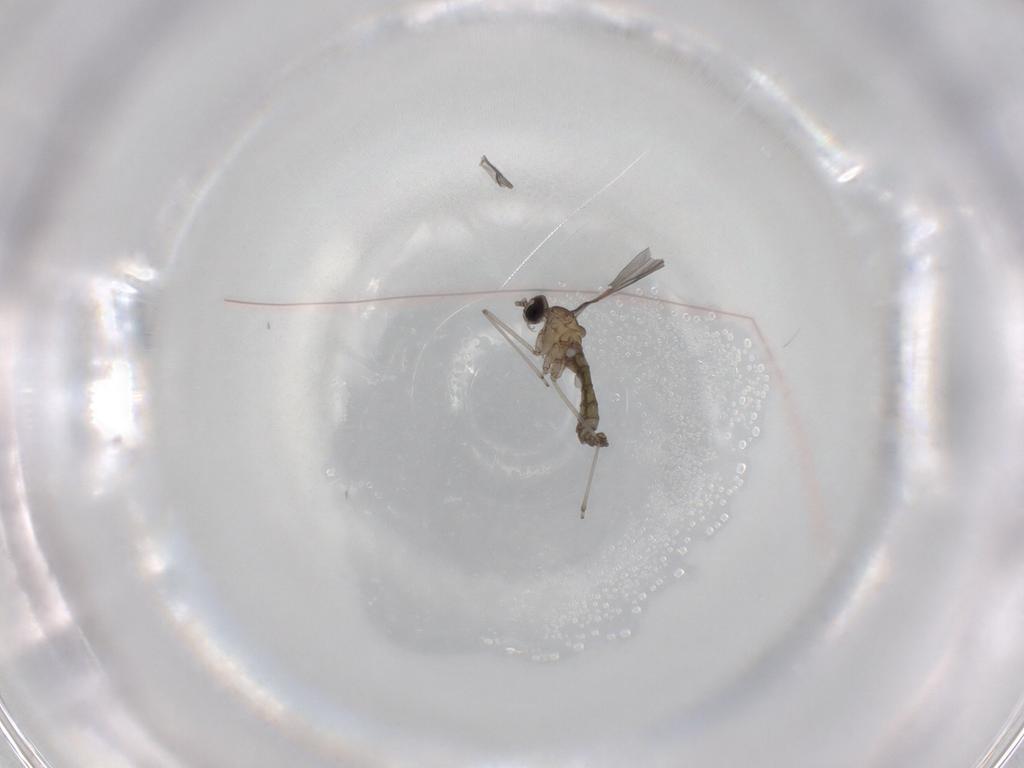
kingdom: Animalia
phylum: Arthropoda
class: Insecta
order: Diptera
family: Cecidomyiidae
